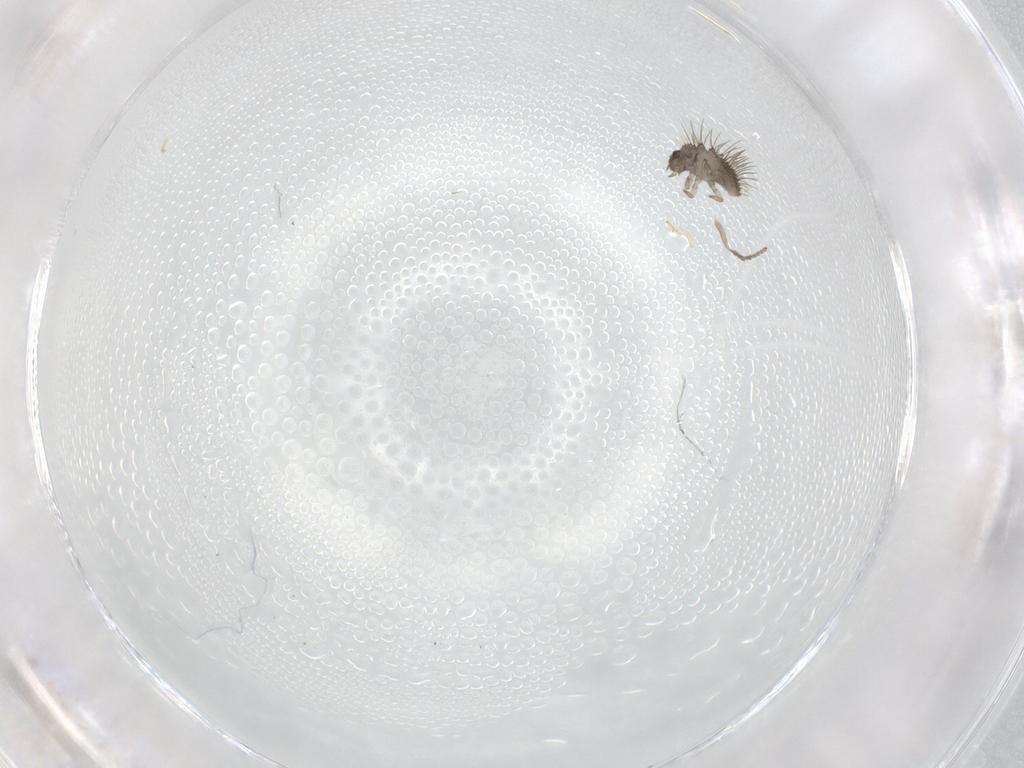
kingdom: Animalia
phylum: Arthropoda
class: Insecta
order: Diptera
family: Psychodidae
